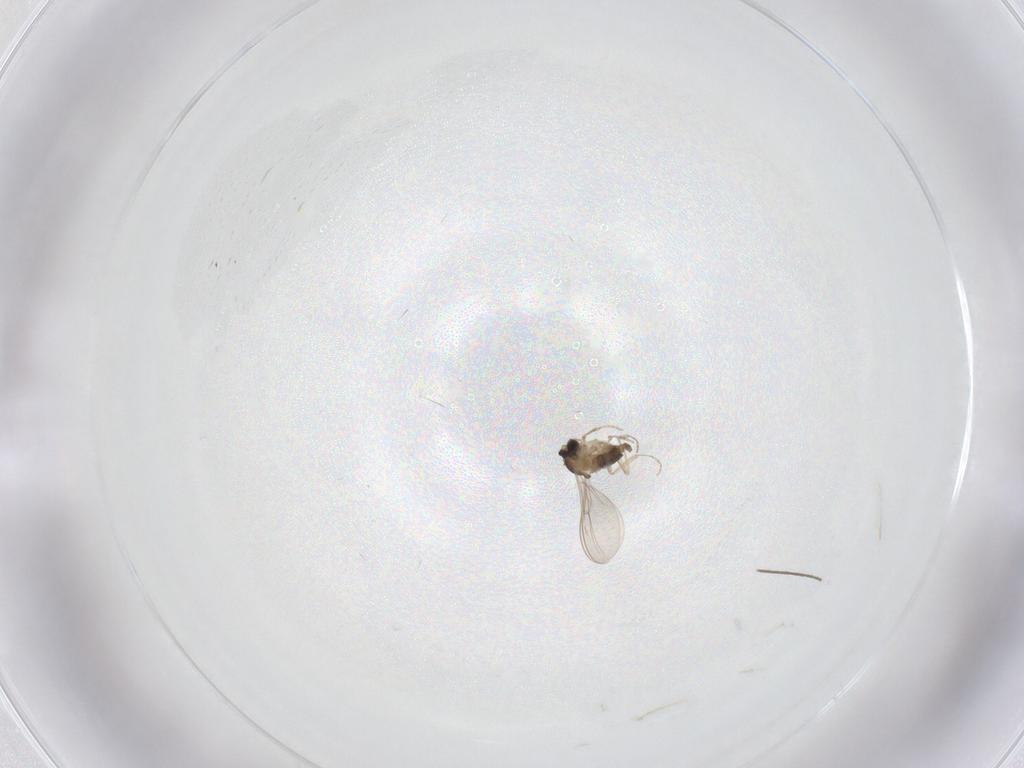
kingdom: Animalia
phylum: Arthropoda
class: Insecta
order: Diptera
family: Cecidomyiidae
